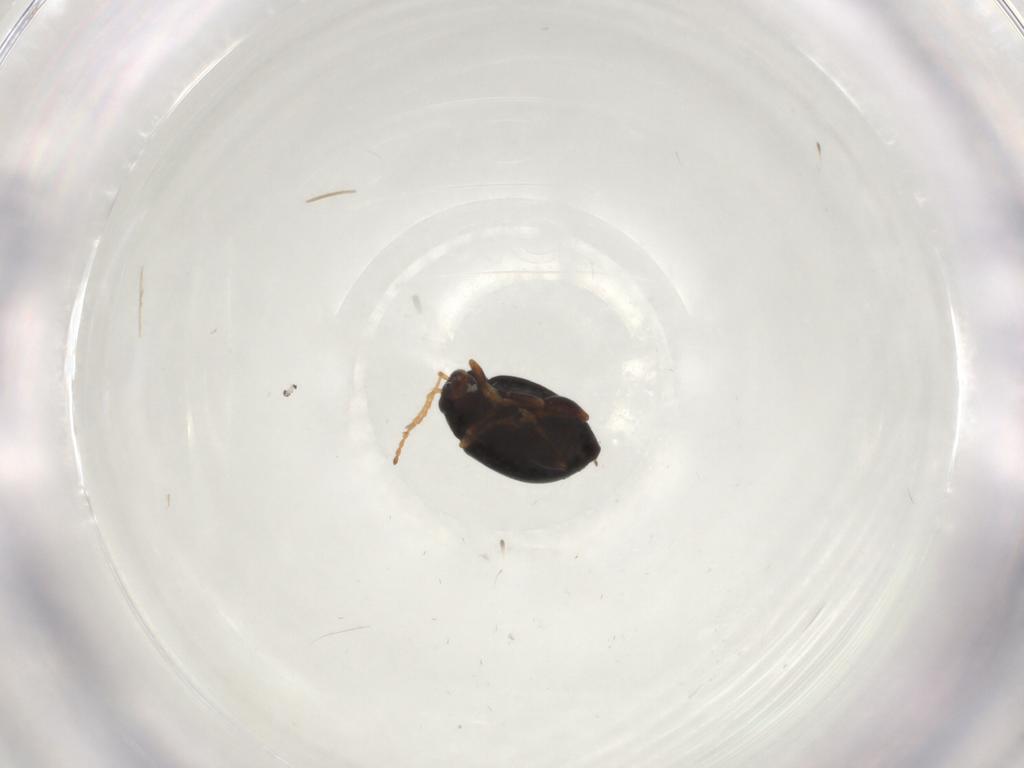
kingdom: Animalia
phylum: Arthropoda
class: Insecta
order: Coleoptera
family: Chrysomelidae
